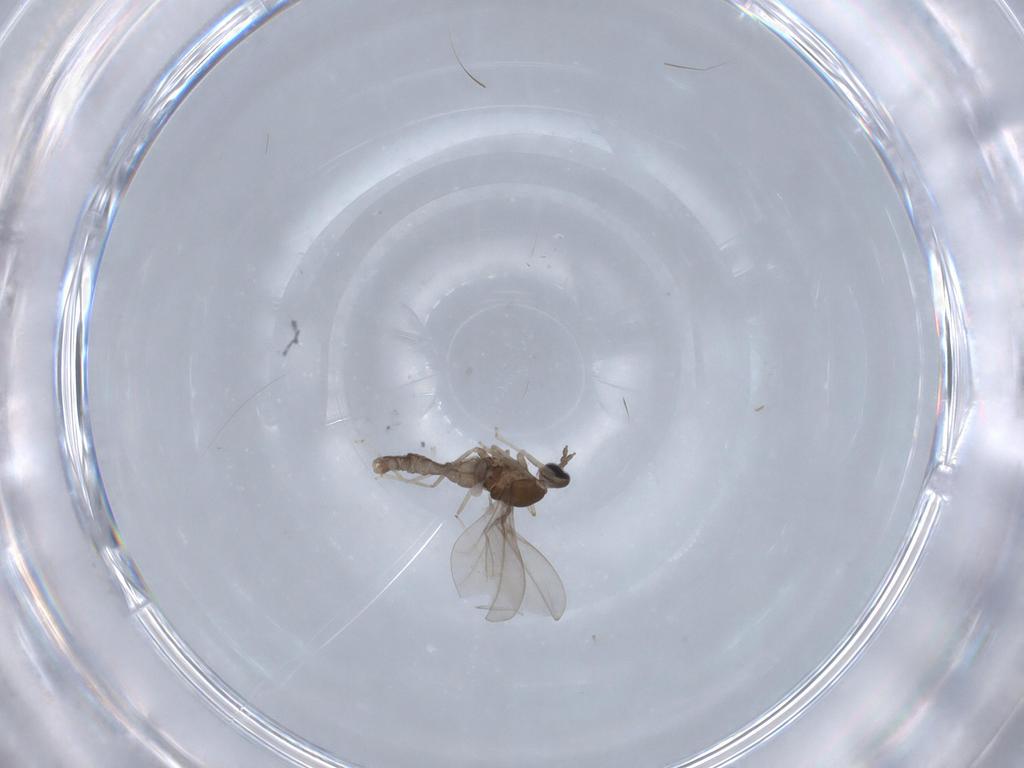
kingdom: Animalia
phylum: Arthropoda
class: Insecta
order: Diptera
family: Cecidomyiidae
